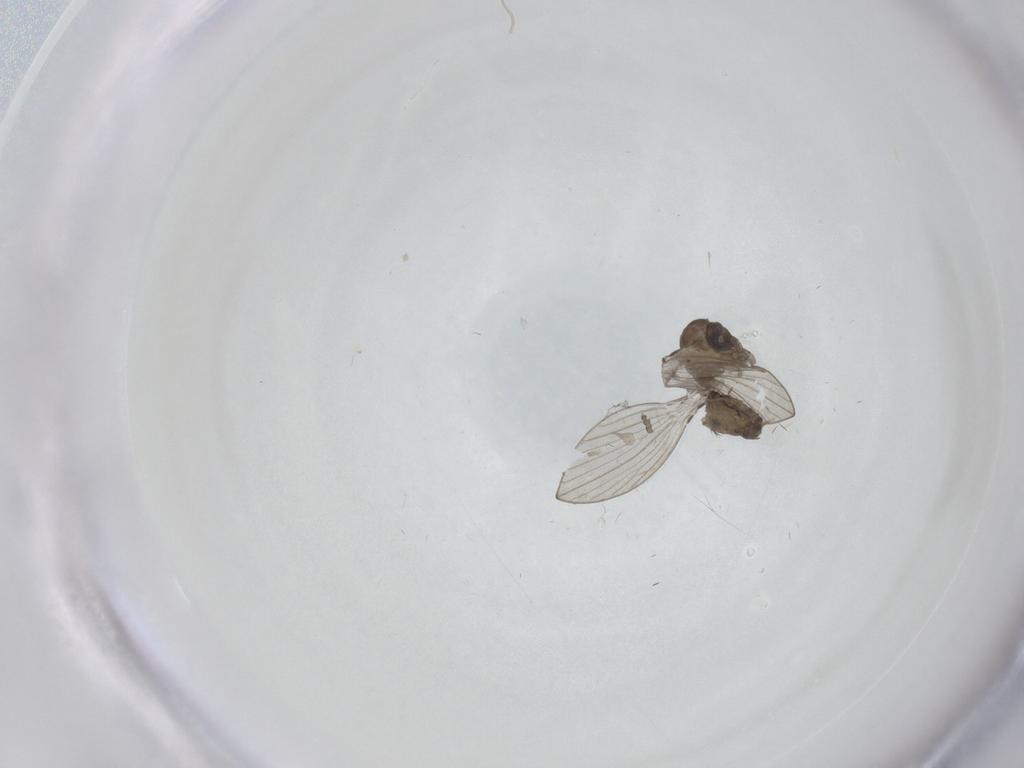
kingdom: Animalia
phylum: Arthropoda
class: Insecta
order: Diptera
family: Psychodidae
